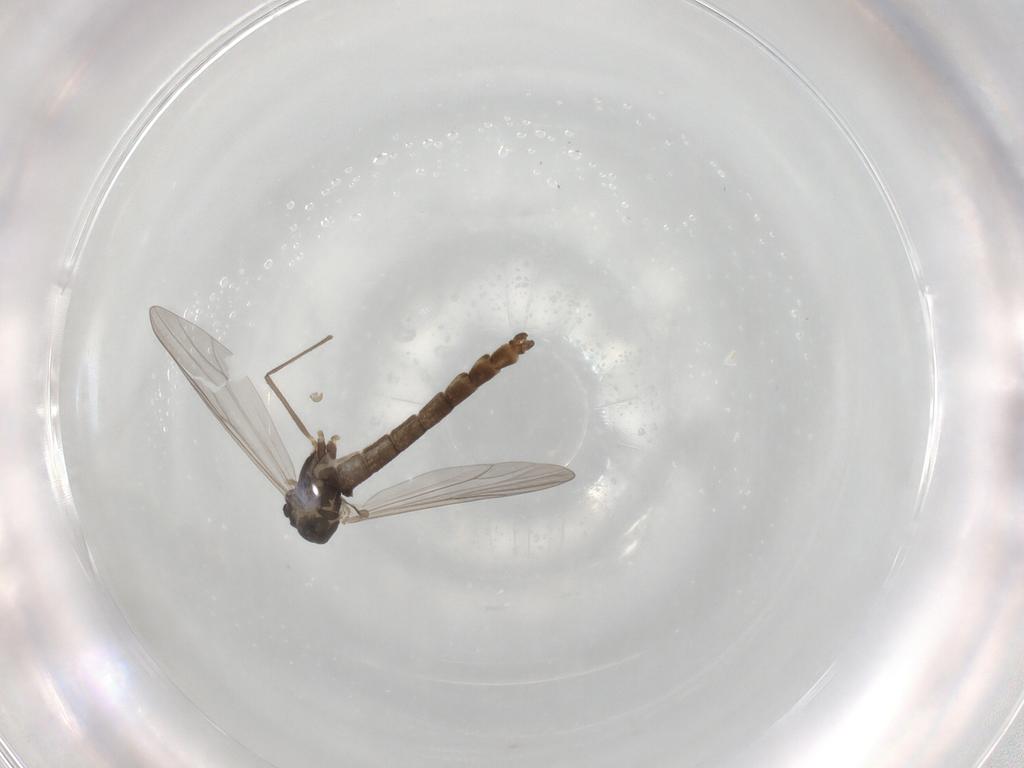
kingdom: Animalia
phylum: Arthropoda
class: Insecta
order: Diptera
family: Chironomidae
